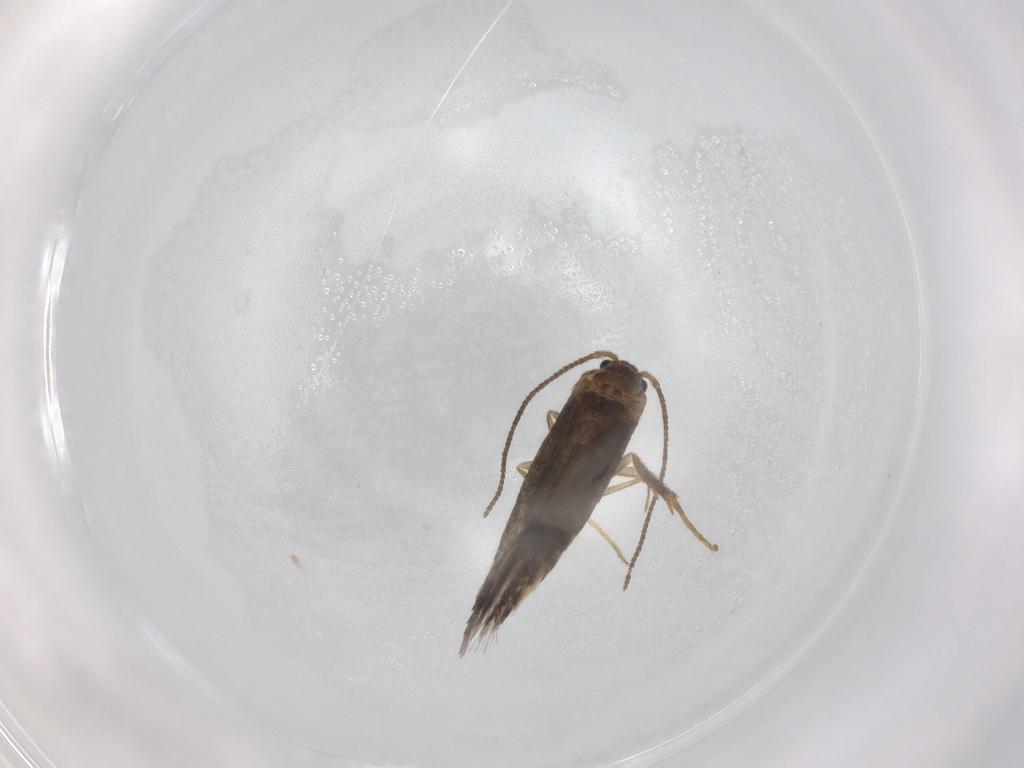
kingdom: Animalia
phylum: Arthropoda
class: Insecta
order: Lepidoptera
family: Nepticulidae
